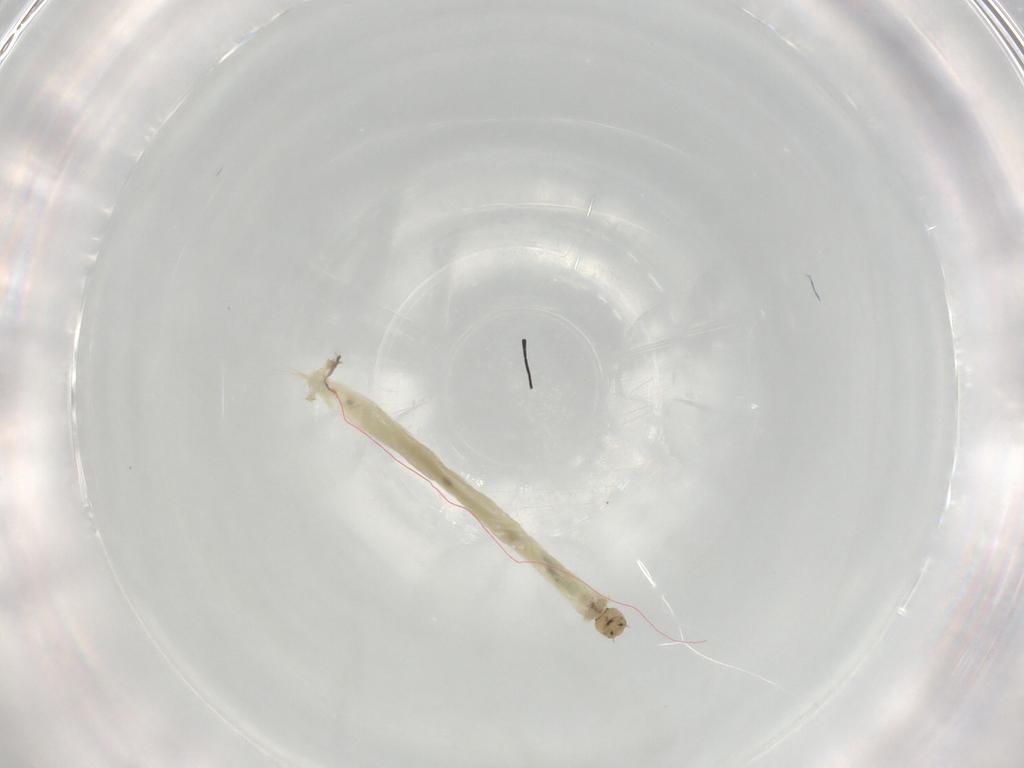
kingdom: Animalia
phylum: Arthropoda
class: Insecta
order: Diptera
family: Chironomidae
